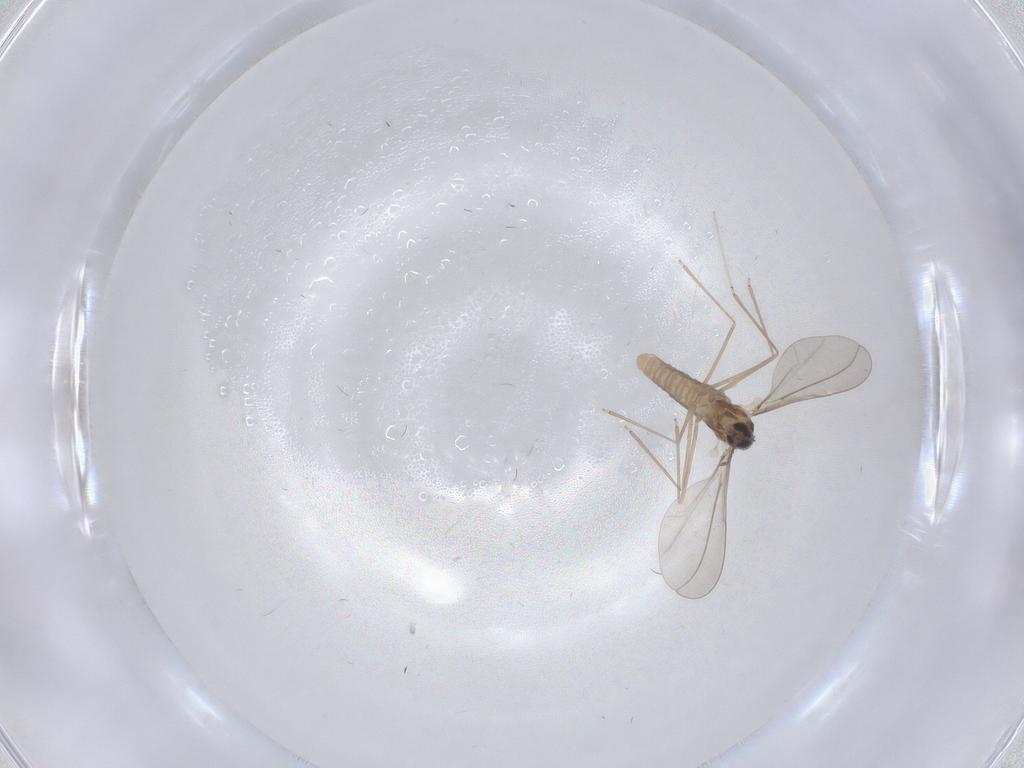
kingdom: Animalia
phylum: Arthropoda
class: Insecta
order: Diptera
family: Cecidomyiidae
